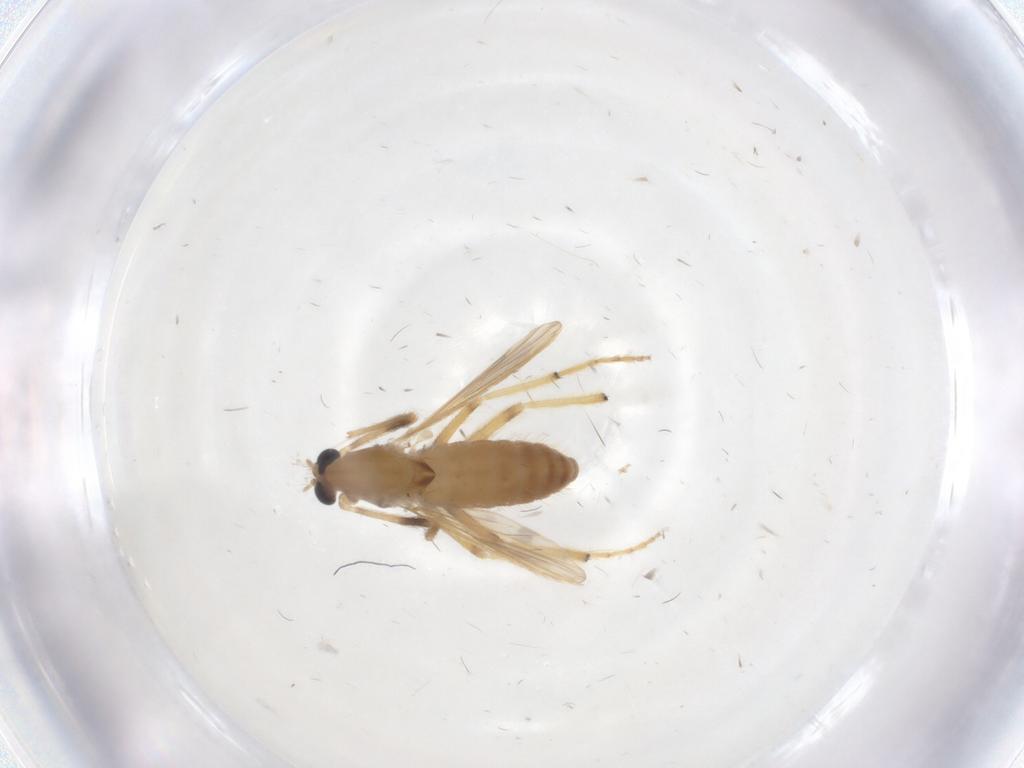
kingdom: Animalia
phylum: Arthropoda
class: Insecta
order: Diptera
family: Chironomidae
